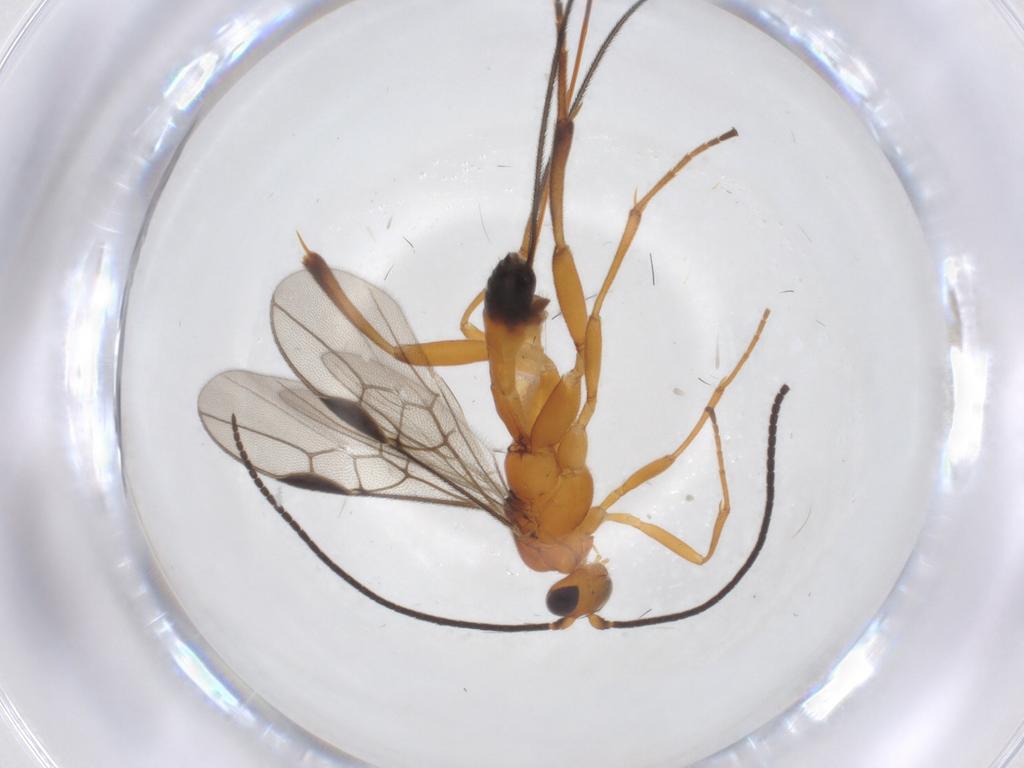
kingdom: Animalia
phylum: Arthropoda
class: Insecta
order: Hymenoptera
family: Braconidae
